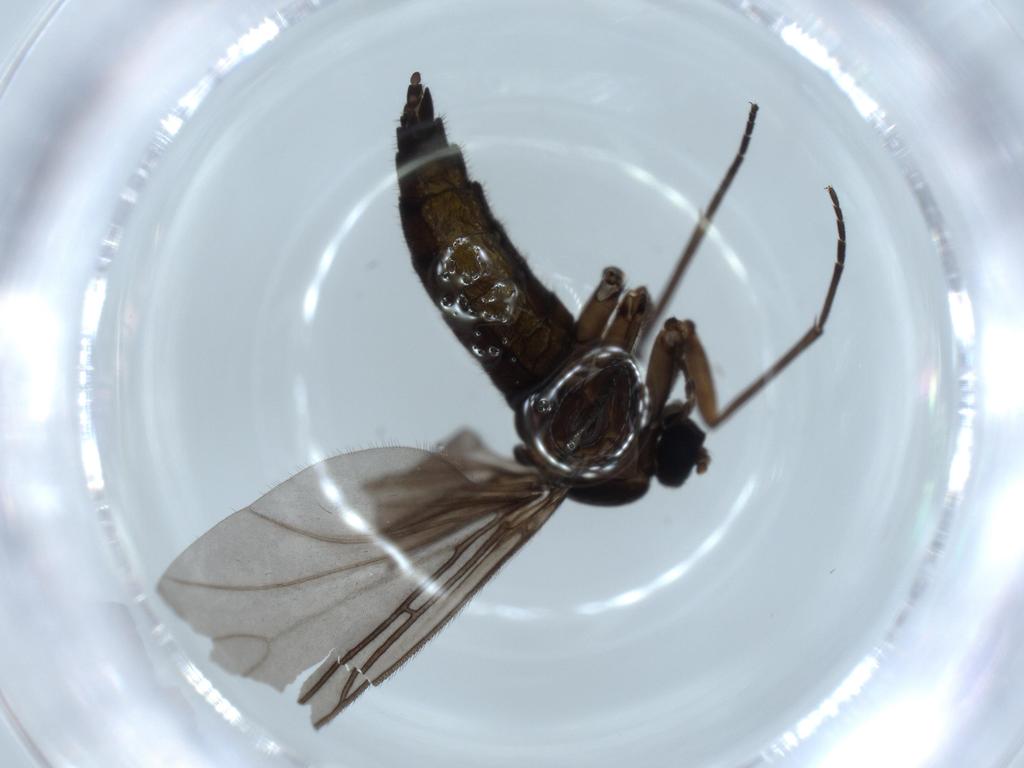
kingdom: Animalia
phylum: Arthropoda
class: Insecta
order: Diptera
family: Sciaridae
